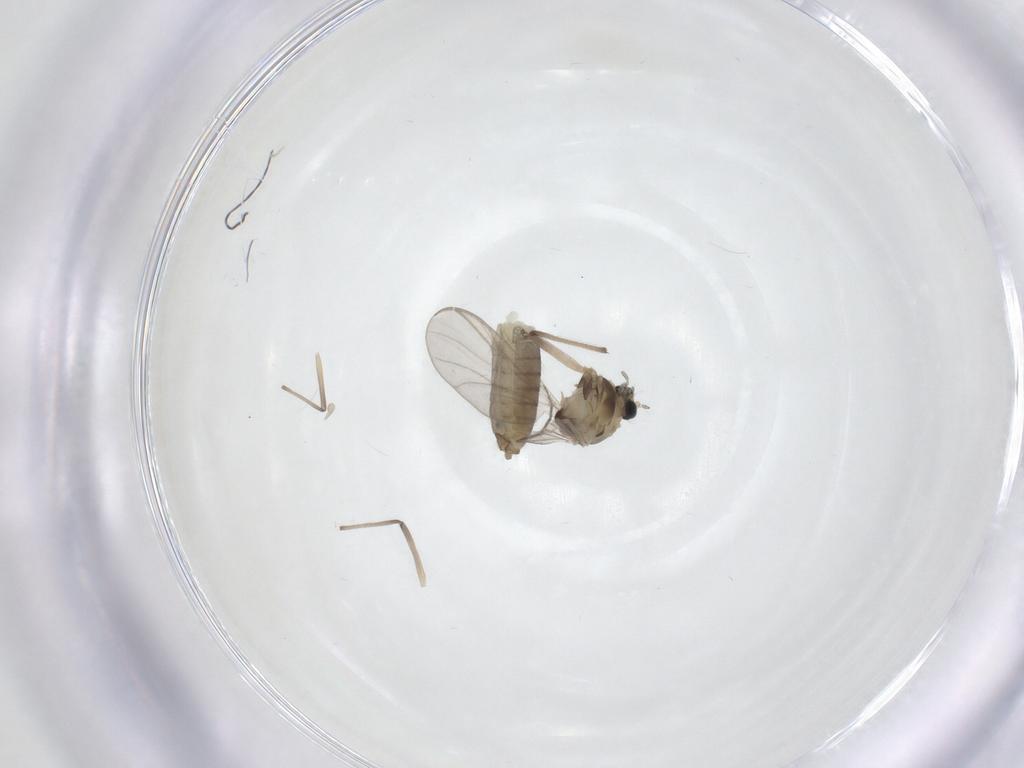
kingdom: Animalia
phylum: Arthropoda
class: Insecta
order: Diptera
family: Chironomidae
